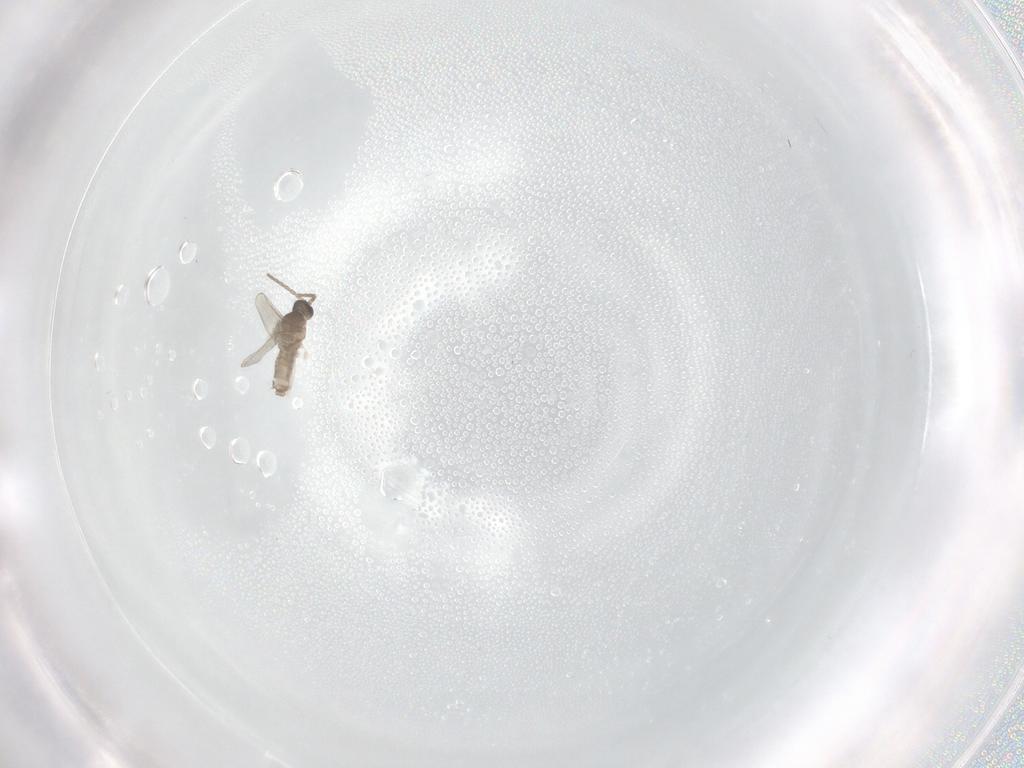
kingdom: Animalia
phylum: Arthropoda
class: Insecta
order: Diptera
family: Cecidomyiidae
